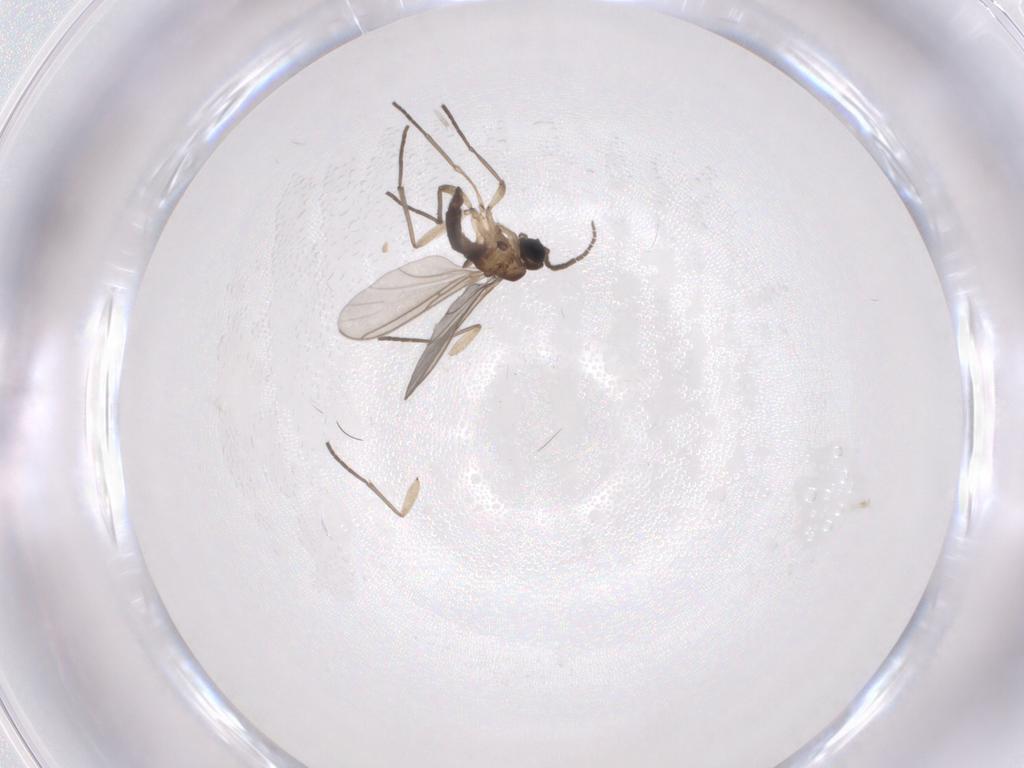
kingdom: Animalia
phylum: Arthropoda
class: Insecta
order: Diptera
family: Sciaridae
